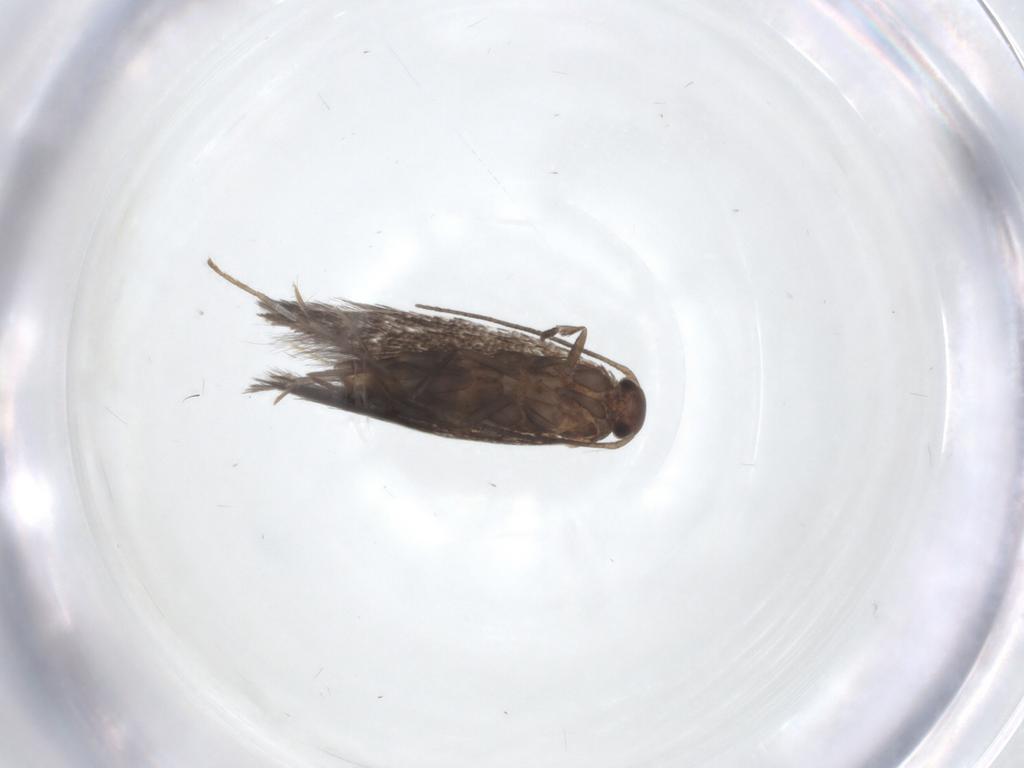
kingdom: Animalia
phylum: Arthropoda
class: Insecta
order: Lepidoptera
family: Elachistidae
